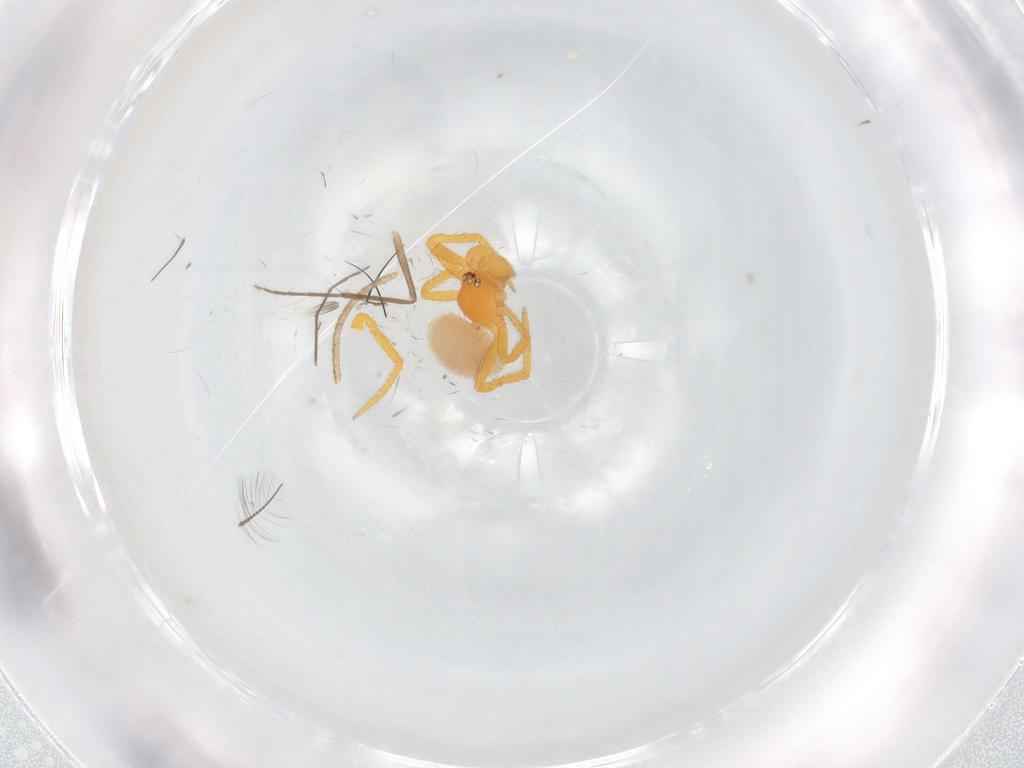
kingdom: Animalia
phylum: Arthropoda
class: Arachnida
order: Araneae
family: Theridiidae
